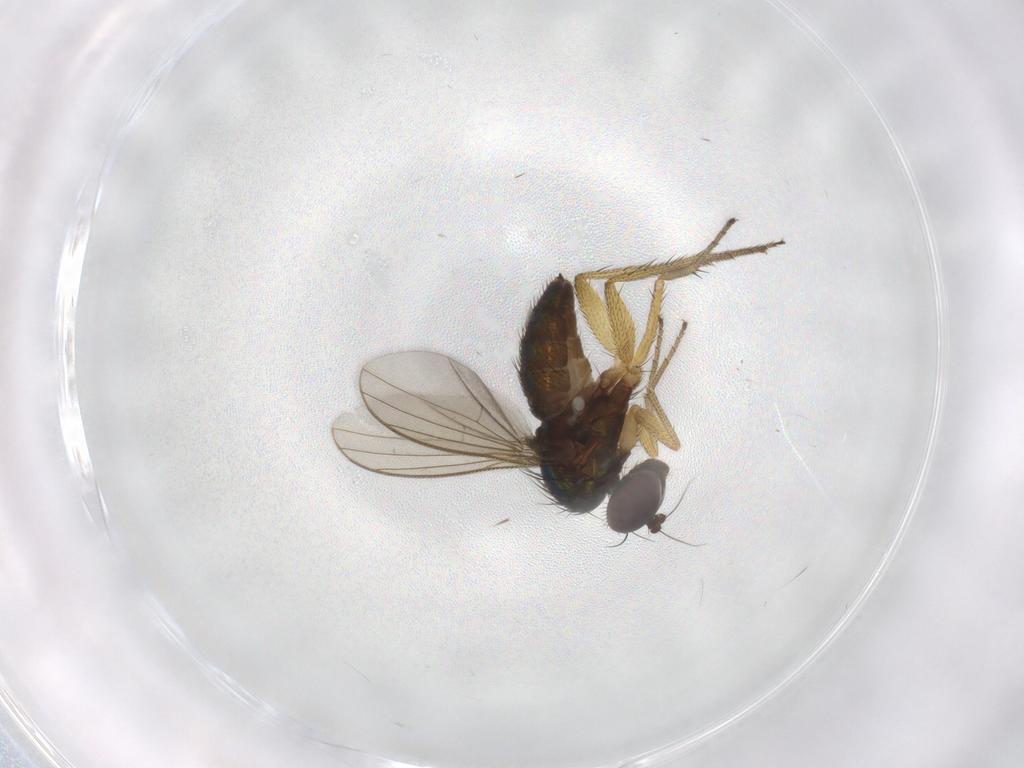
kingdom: Animalia
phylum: Arthropoda
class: Insecta
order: Diptera
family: Dolichopodidae
